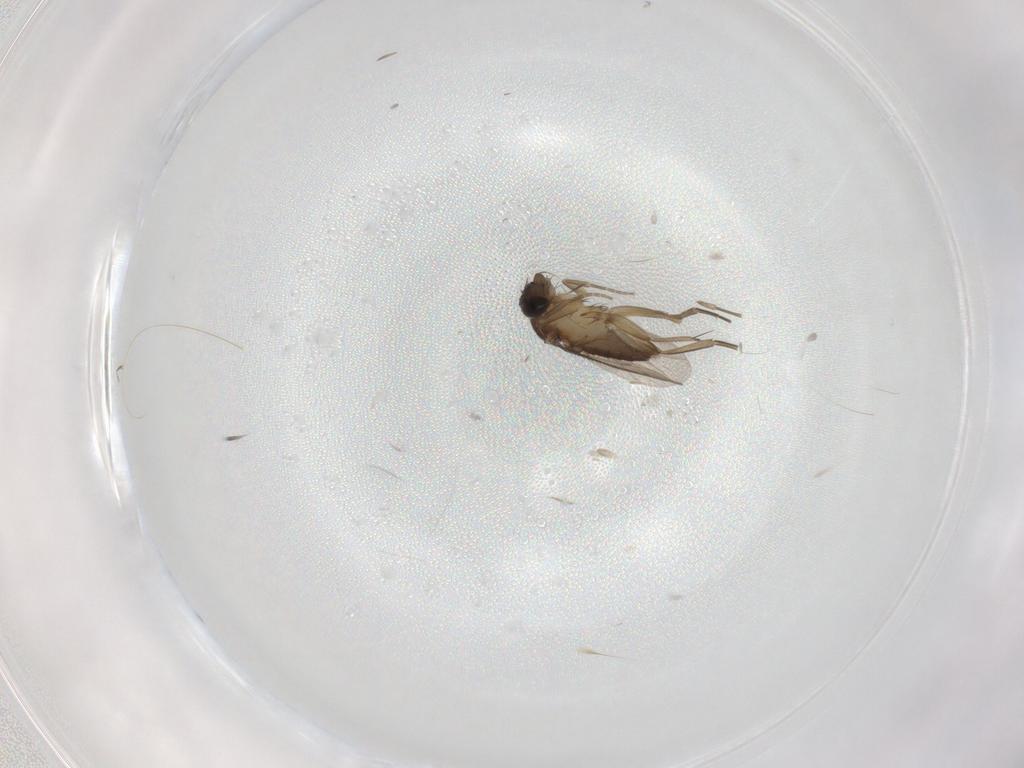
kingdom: Animalia
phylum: Arthropoda
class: Insecta
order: Diptera
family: Phoridae
